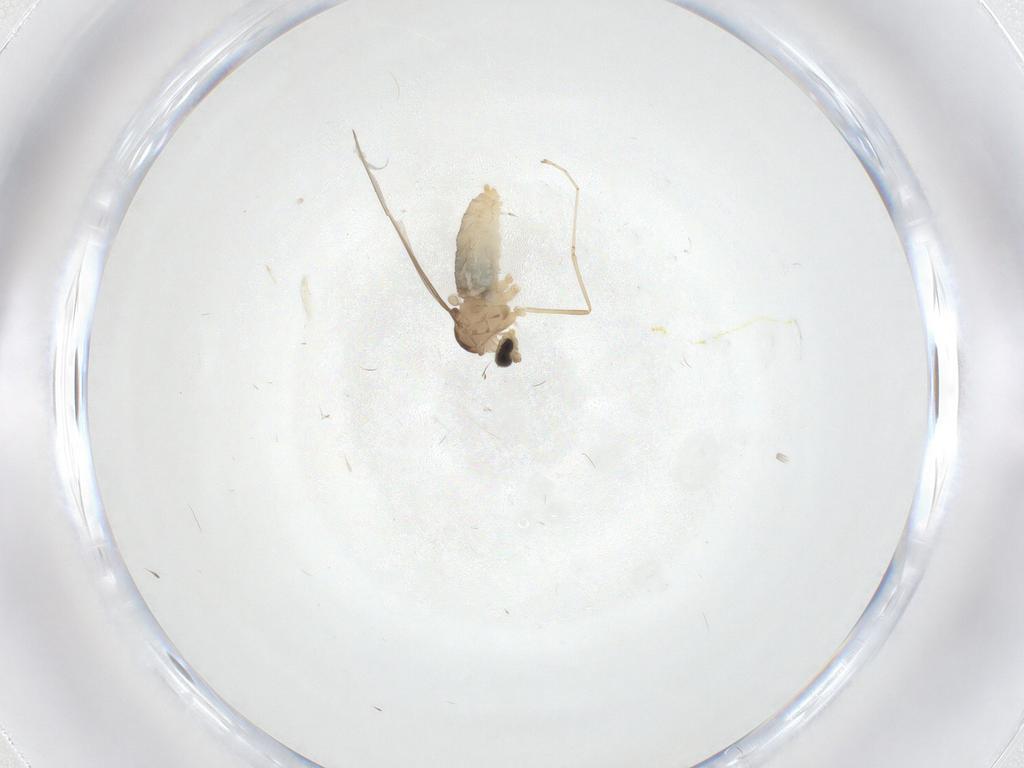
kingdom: Animalia
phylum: Arthropoda
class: Insecta
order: Diptera
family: Cecidomyiidae
